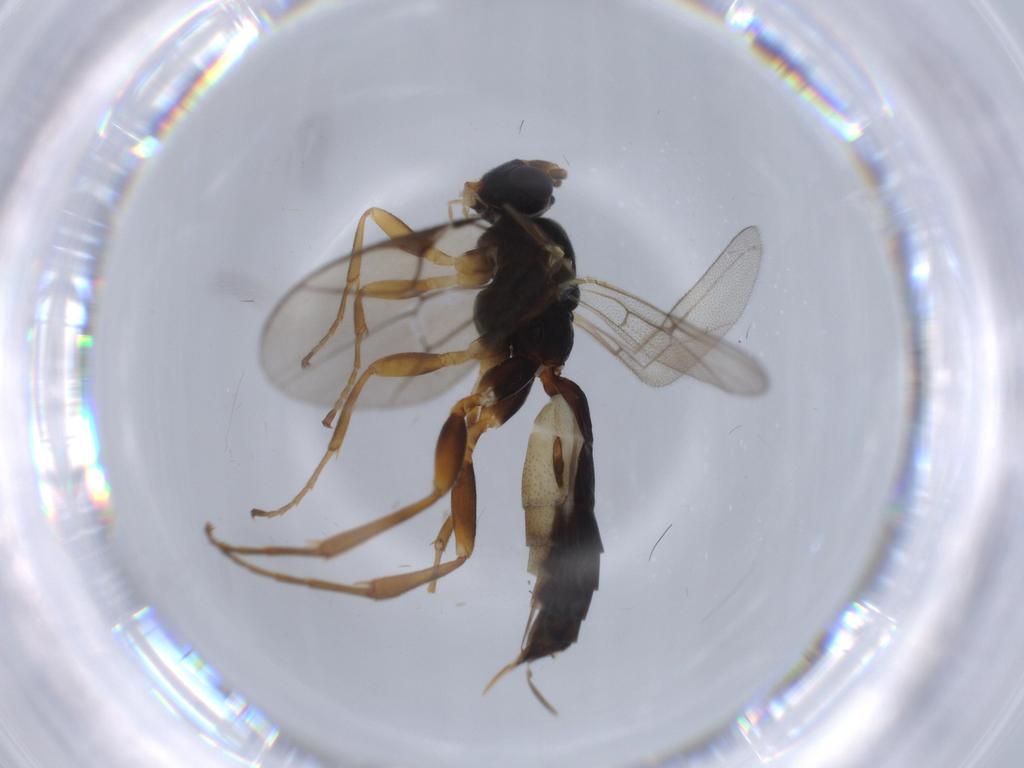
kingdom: Animalia
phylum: Arthropoda
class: Insecta
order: Hymenoptera
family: Ichneumonidae
